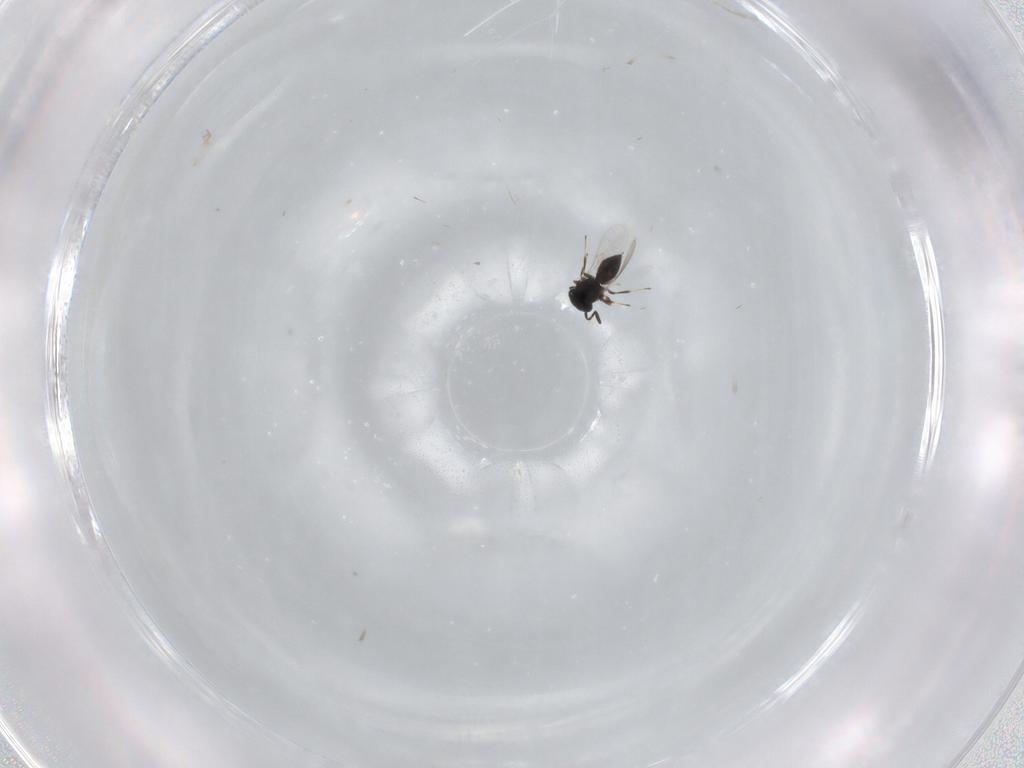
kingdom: Animalia
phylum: Arthropoda
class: Insecta
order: Hymenoptera
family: Braconidae
